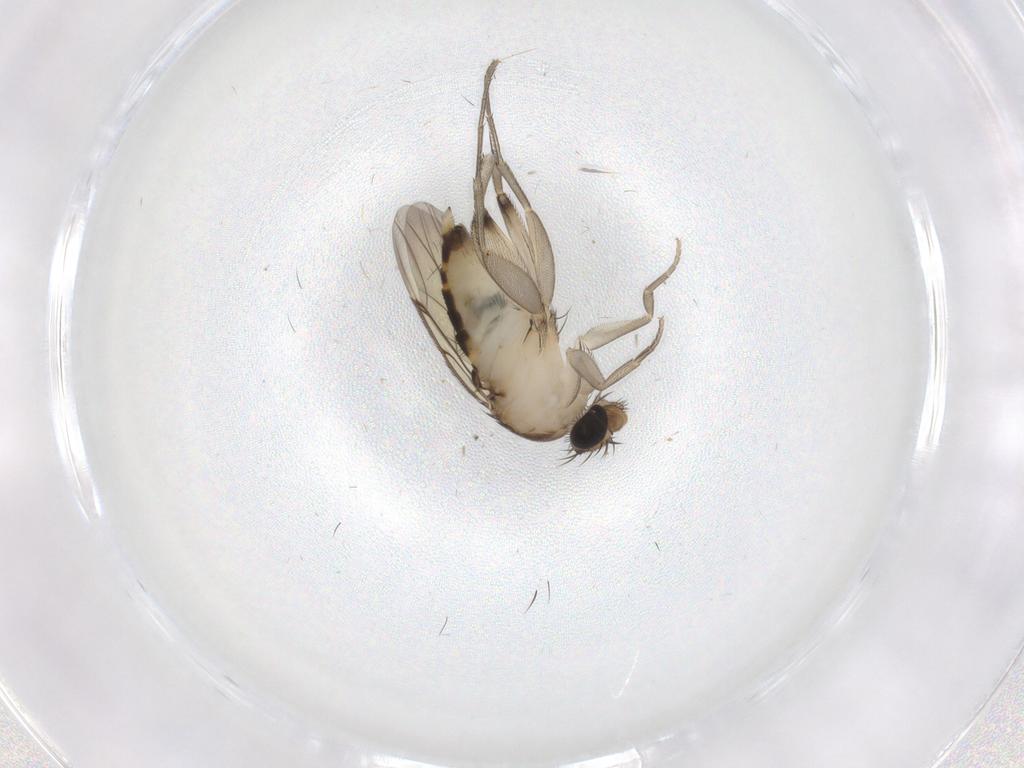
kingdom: Animalia
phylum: Arthropoda
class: Insecta
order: Diptera
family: Phoridae
